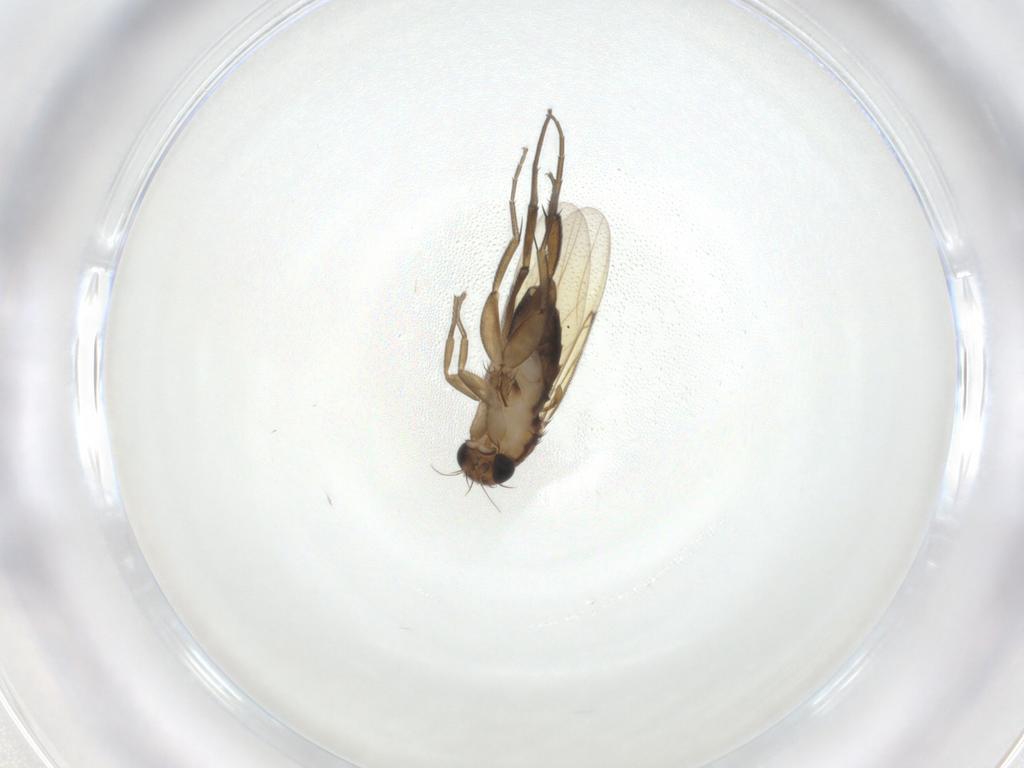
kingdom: Animalia
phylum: Arthropoda
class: Insecta
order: Diptera
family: Phoridae
